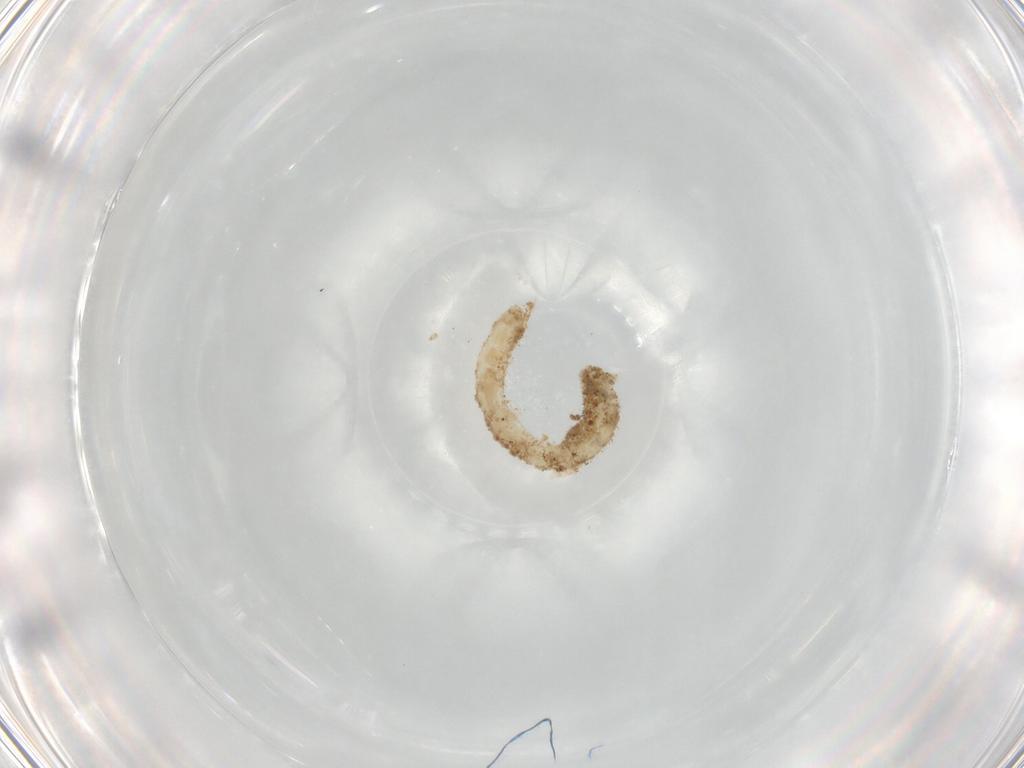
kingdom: Animalia
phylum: Arthropoda
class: Insecta
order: Diptera
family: Chironomidae
